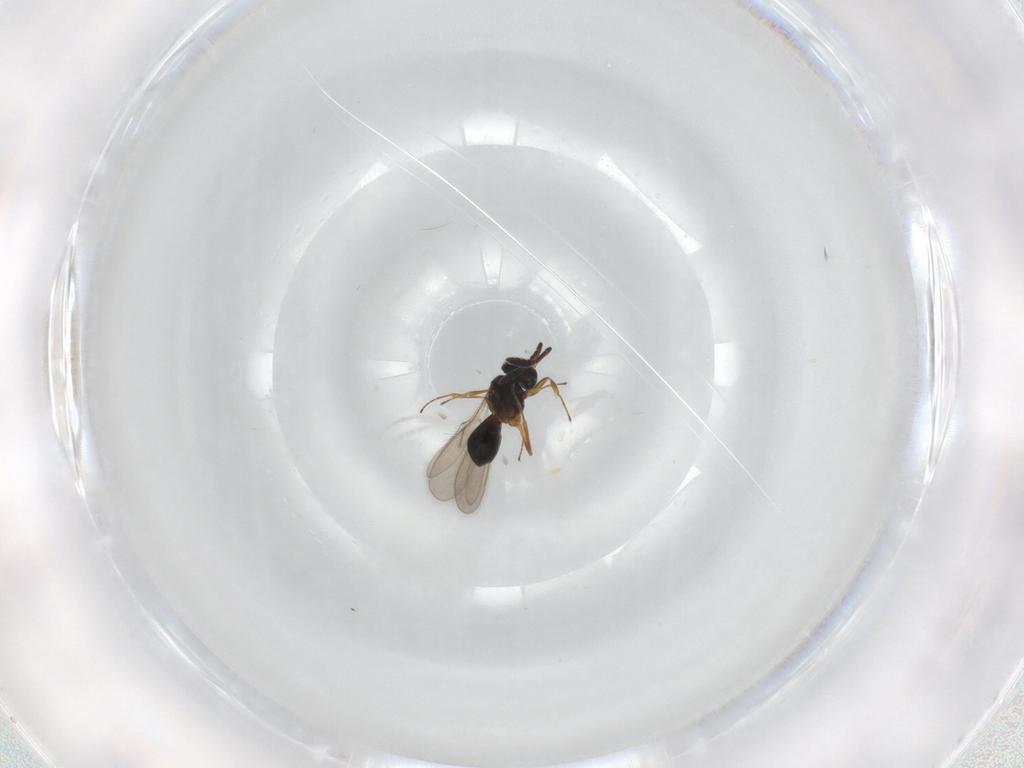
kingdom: Animalia
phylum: Arthropoda
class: Insecta
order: Hymenoptera
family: Scelionidae
